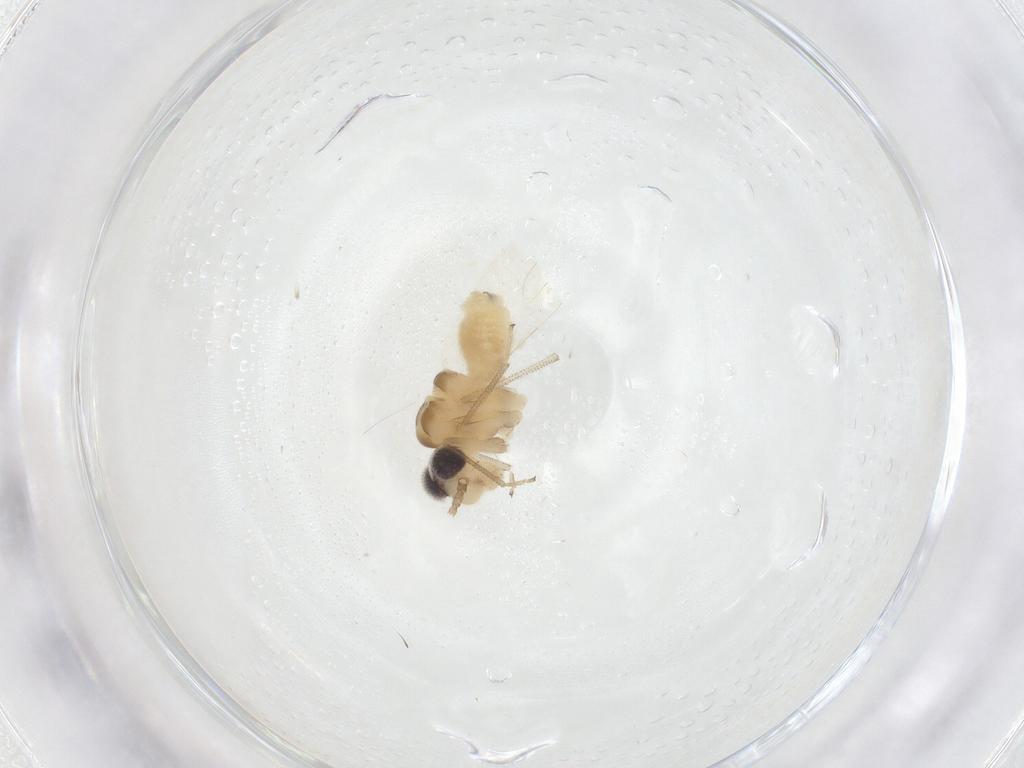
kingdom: Animalia
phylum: Arthropoda
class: Insecta
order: Psocodea
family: Caeciliusidae
